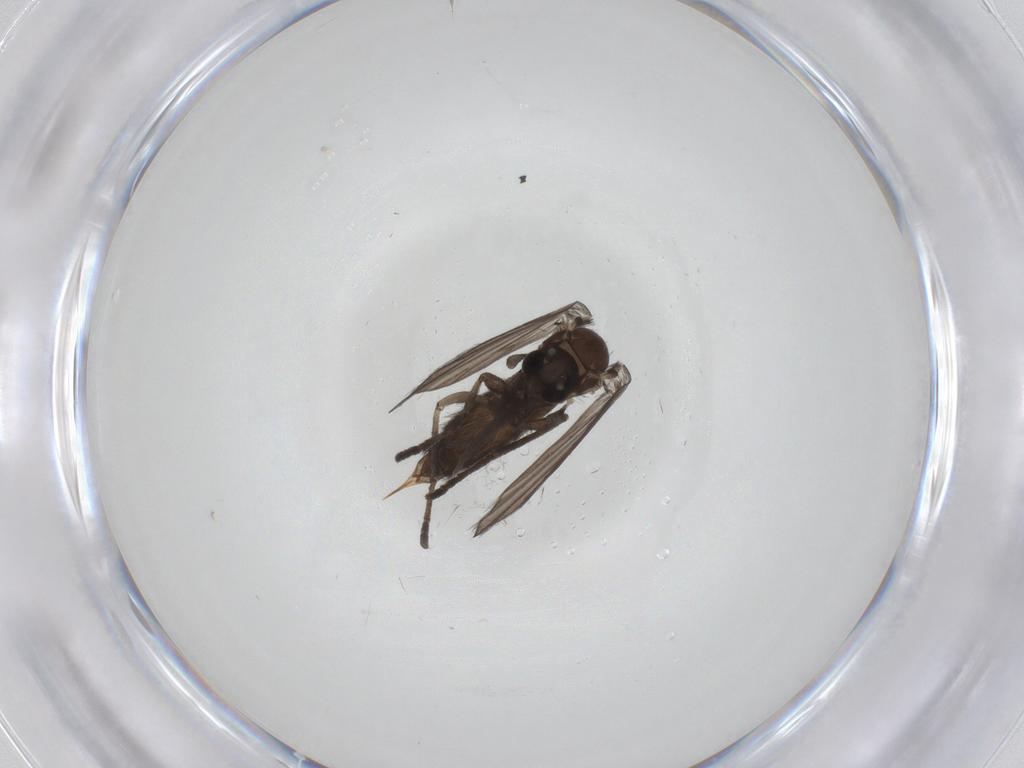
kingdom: Animalia
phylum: Arthropoda
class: Insecta
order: Diptera
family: Psychodidae
